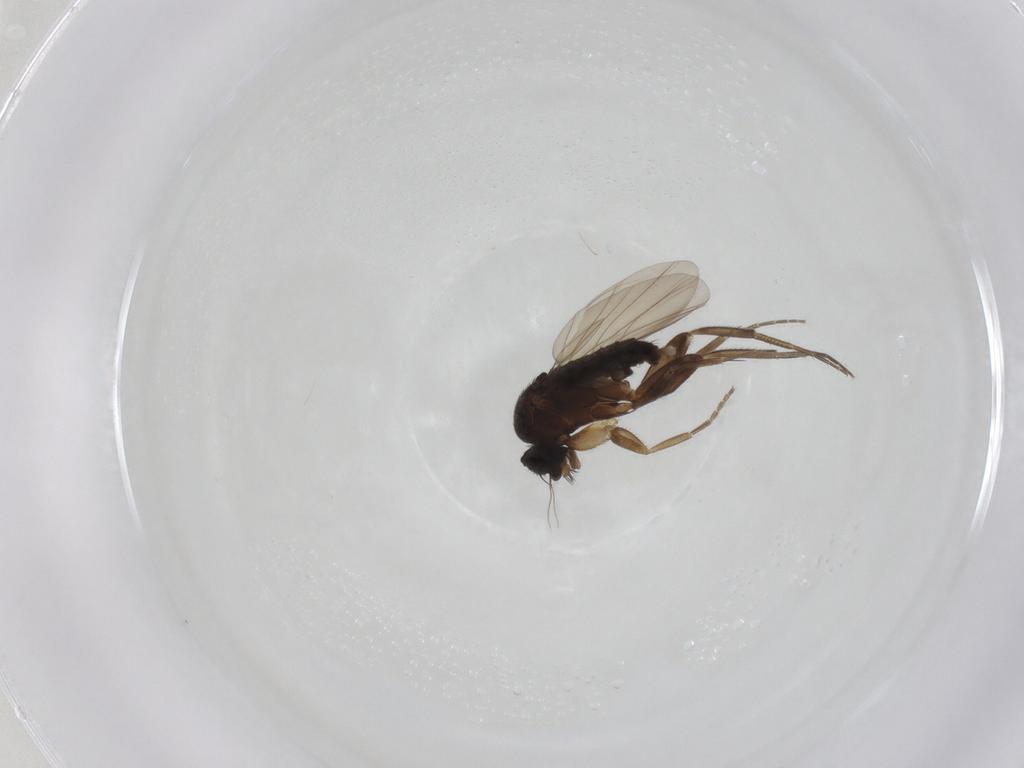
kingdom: Animalia
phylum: Arthropoda
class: Insecta
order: Diptera
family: Phoridae
